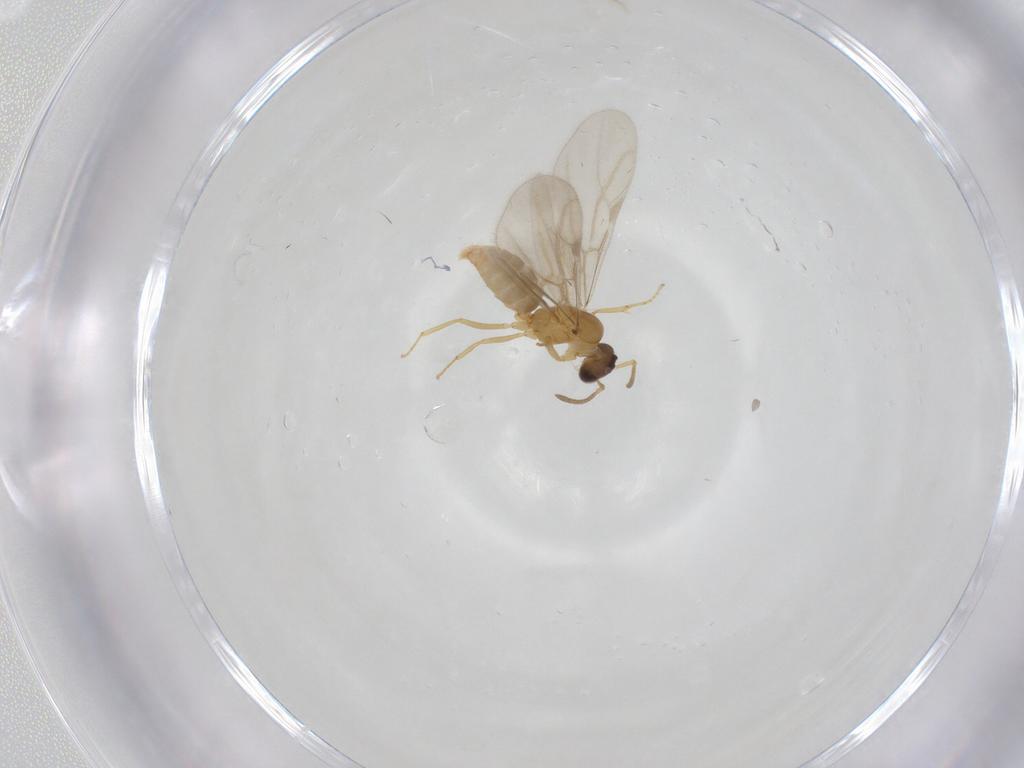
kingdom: Animalia
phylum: Arthropoda
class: Insecta
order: Hymenoptera
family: Formicidae
